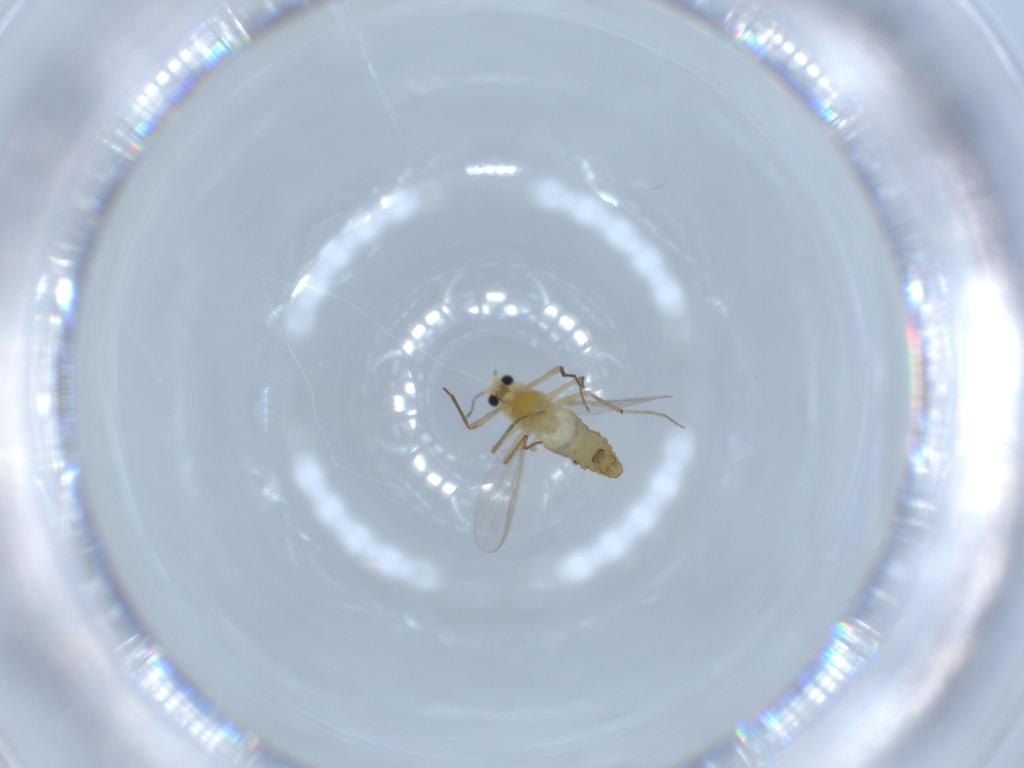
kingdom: Animalia
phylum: Arthropoda
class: Insecta
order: Diptera
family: Chironomidae
